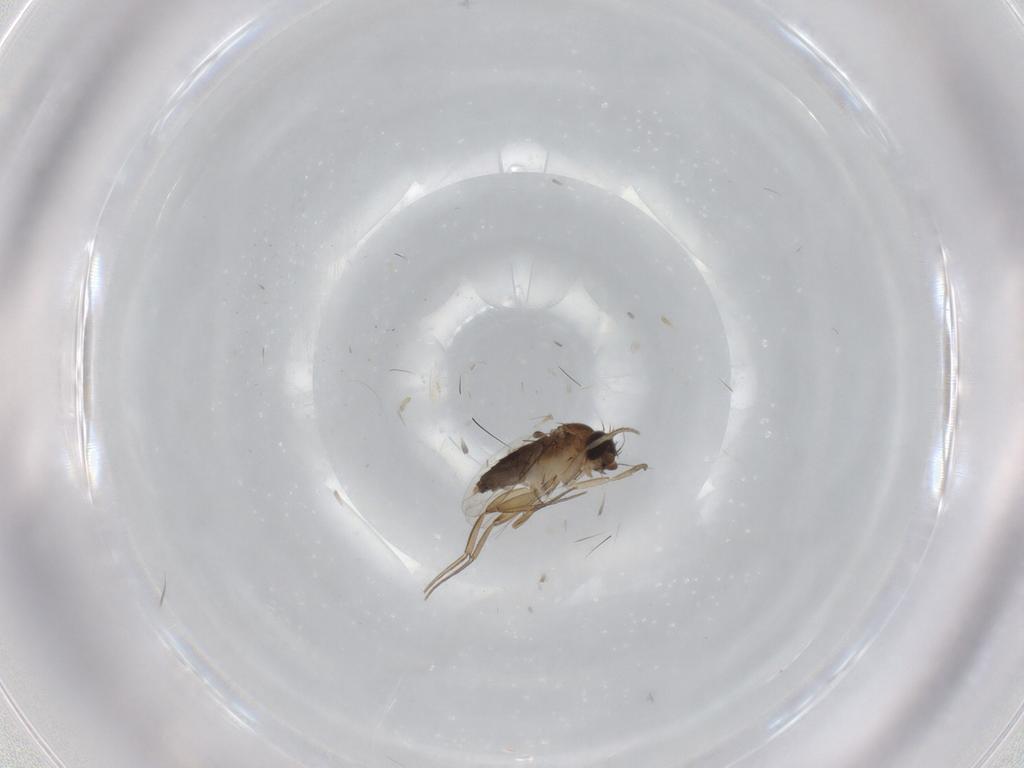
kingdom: Animalia
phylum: Arthropoda
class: Insecta
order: Diptera
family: Phoridae
